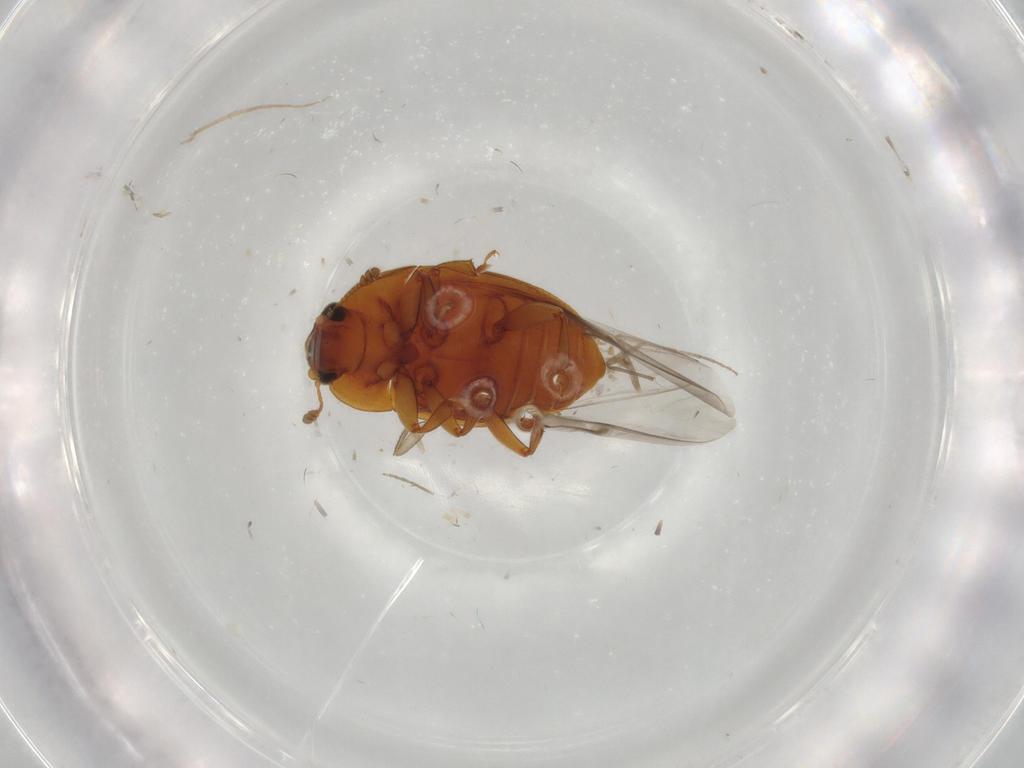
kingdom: Animalia
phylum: Arthropoda
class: Insecta
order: Coleoptera
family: Nitidulidae
